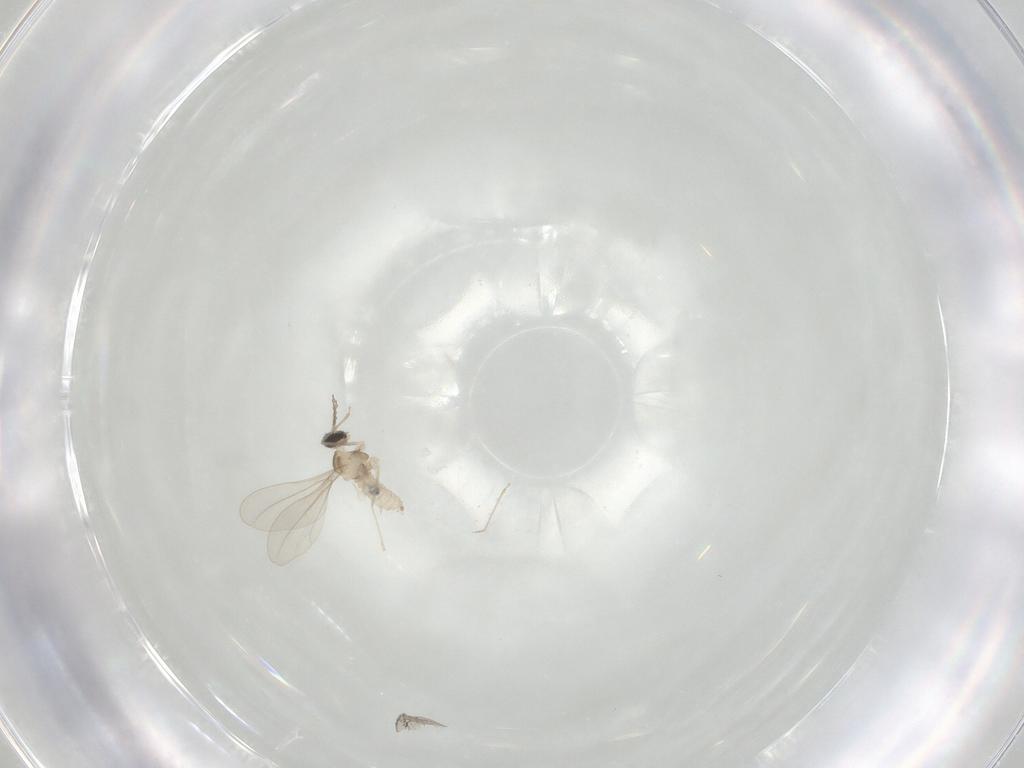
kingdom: Animalia
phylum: Arthropoda
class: Insecta
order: Diptera
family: Cecidomyiidae
